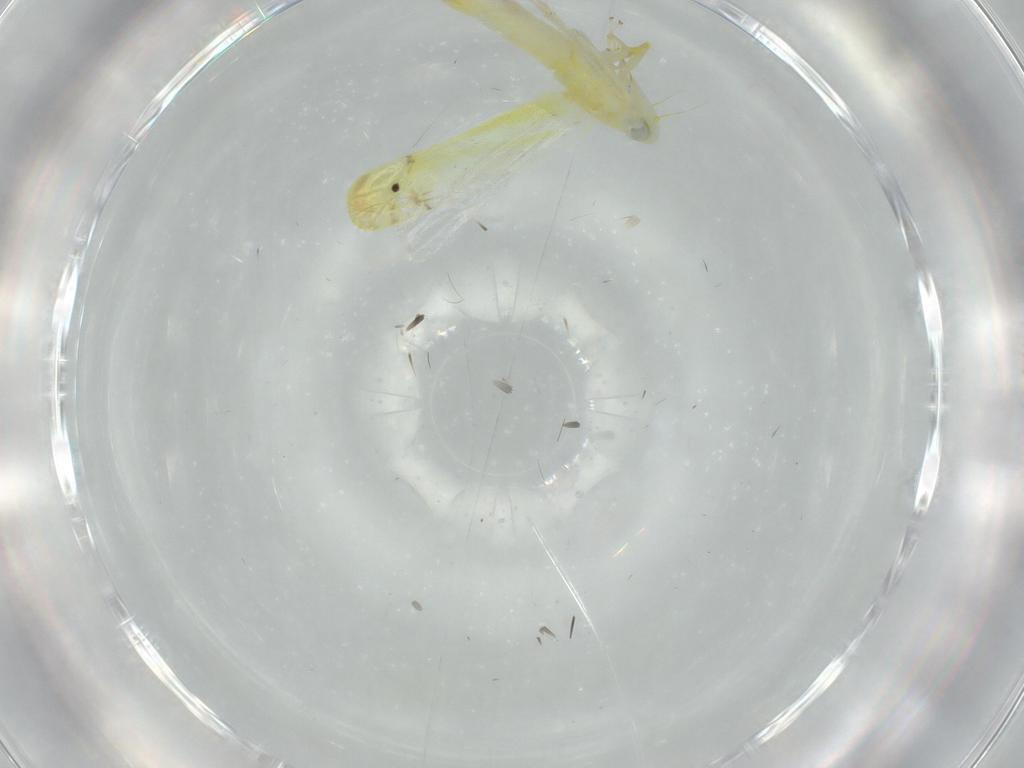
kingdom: Animalia
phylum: Arthropoda
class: Insecta
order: Hemiptera
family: Cicadellidae
